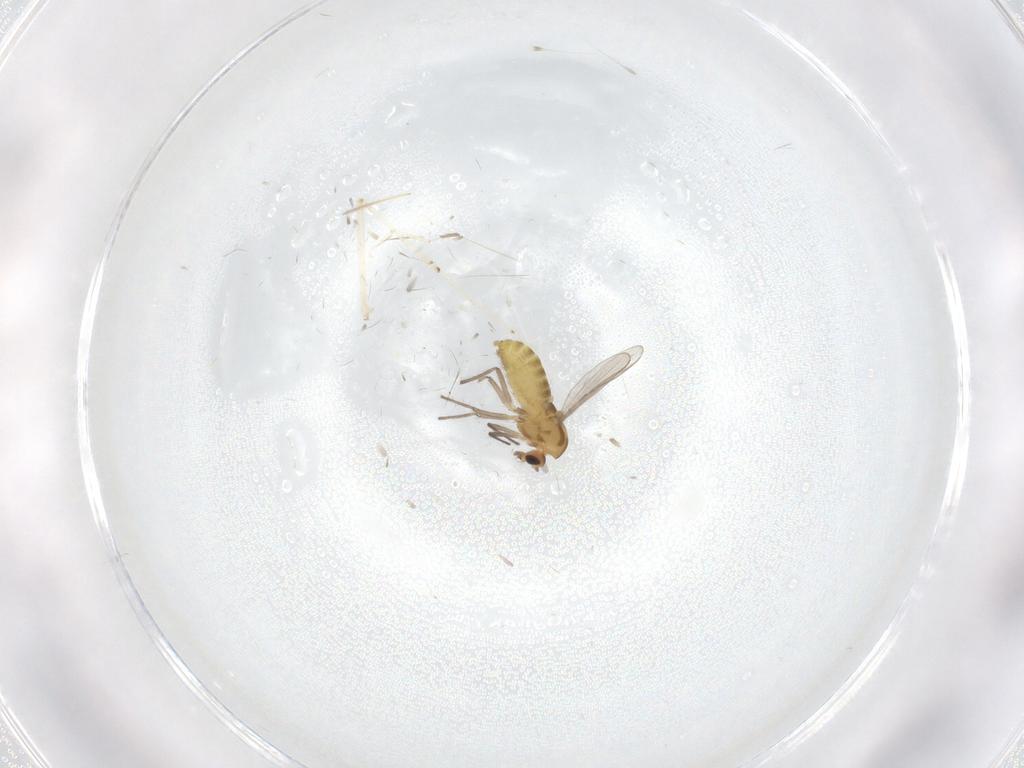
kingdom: Animalia
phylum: Arthropoda
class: Insecta
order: Diptera
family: Chironomidae
